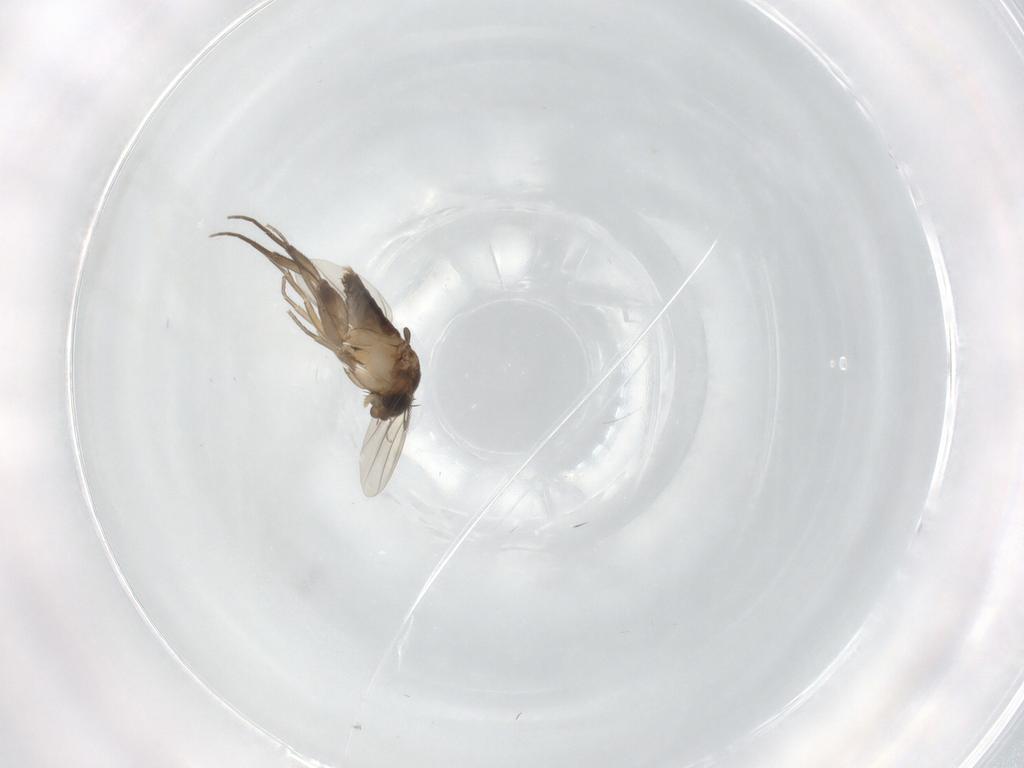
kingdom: Animalia
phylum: Arthropoda
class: Insecta
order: Diptera
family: Phoridae
